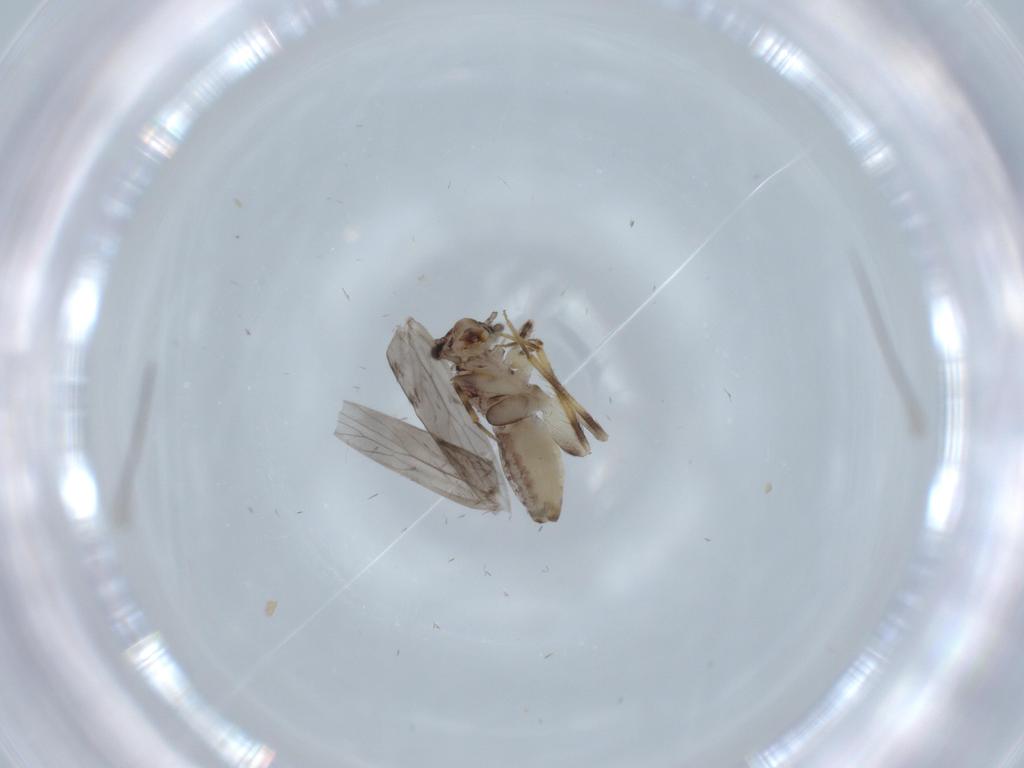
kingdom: Animalia
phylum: Arthropoda
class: Insecta
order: Psocodea
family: Lepidopsocidae
